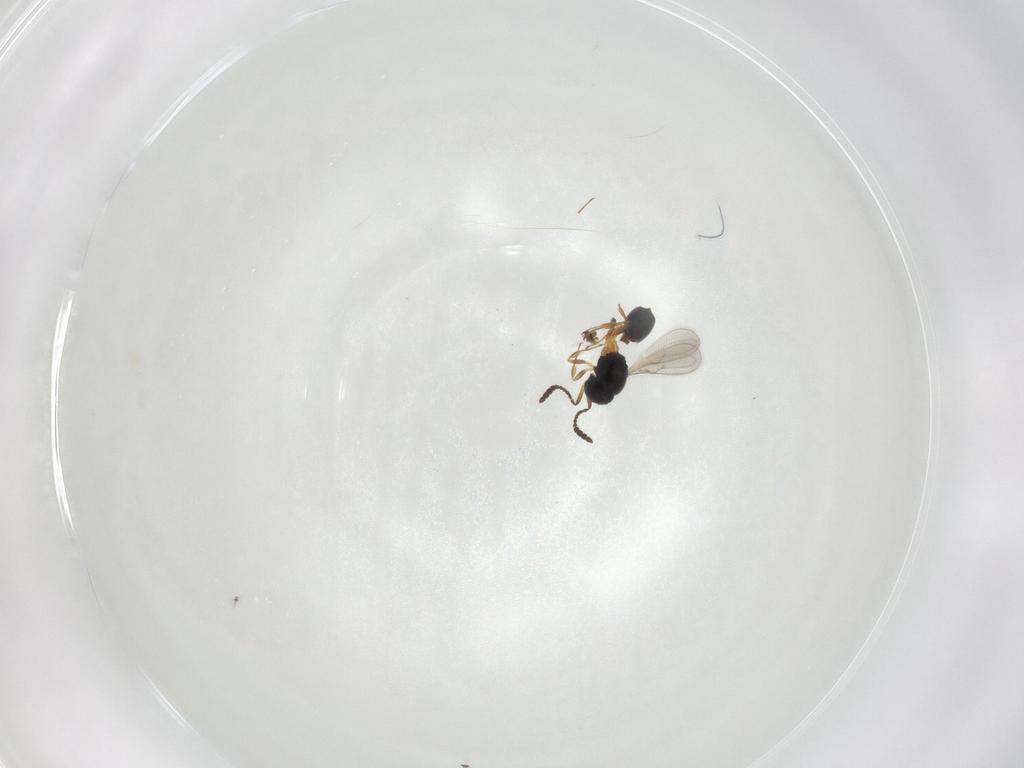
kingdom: Animalia
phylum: Arthropoda
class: Insecta
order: Hymenoptera
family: Scelionidae
